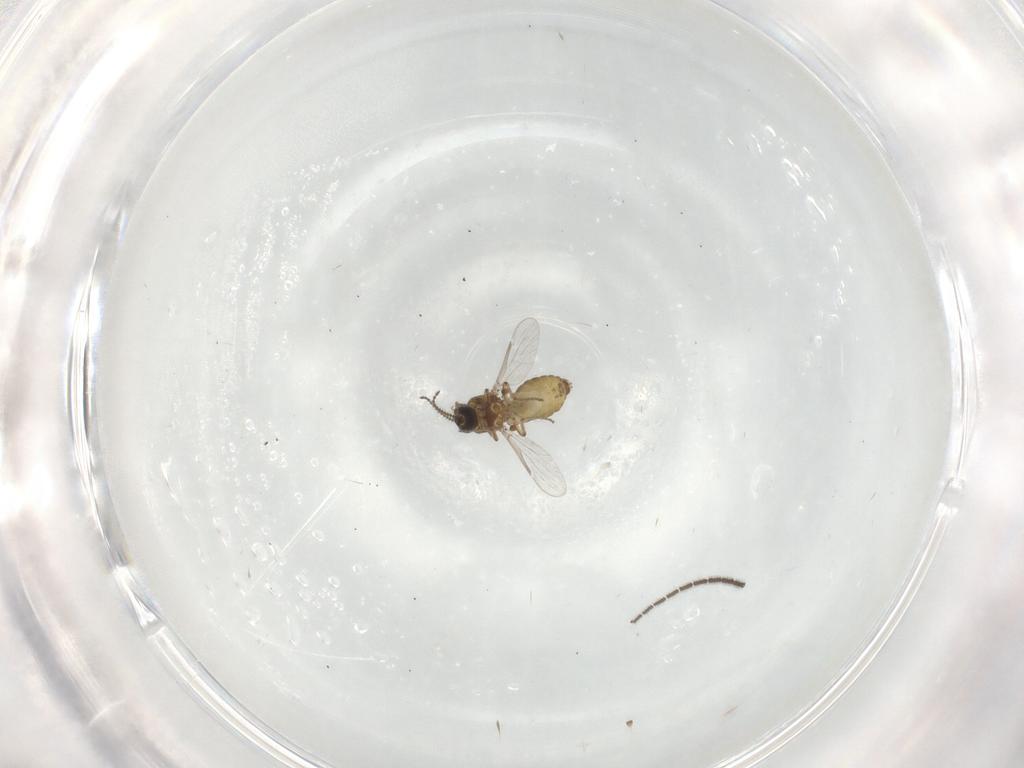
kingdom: Animalia
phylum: Arthropoda
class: Insecta
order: Diptera
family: Ceratopogonidae
